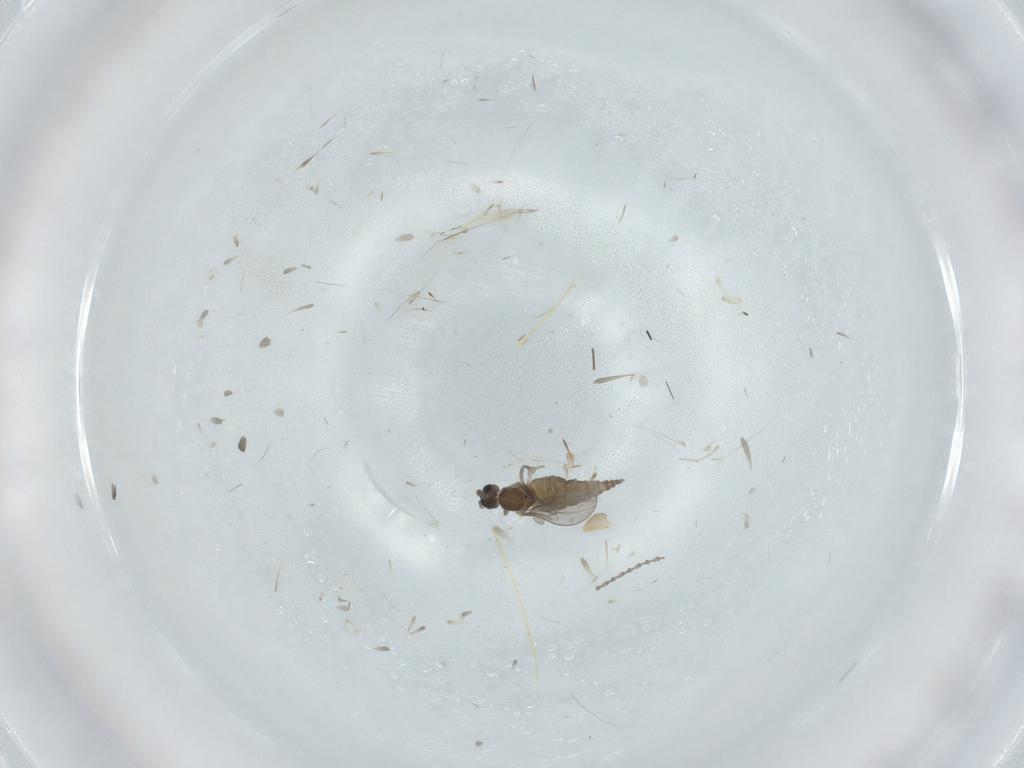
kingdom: Animalia
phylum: Arthropoda
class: Insecta
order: Diptera
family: Cecidomyiidae
